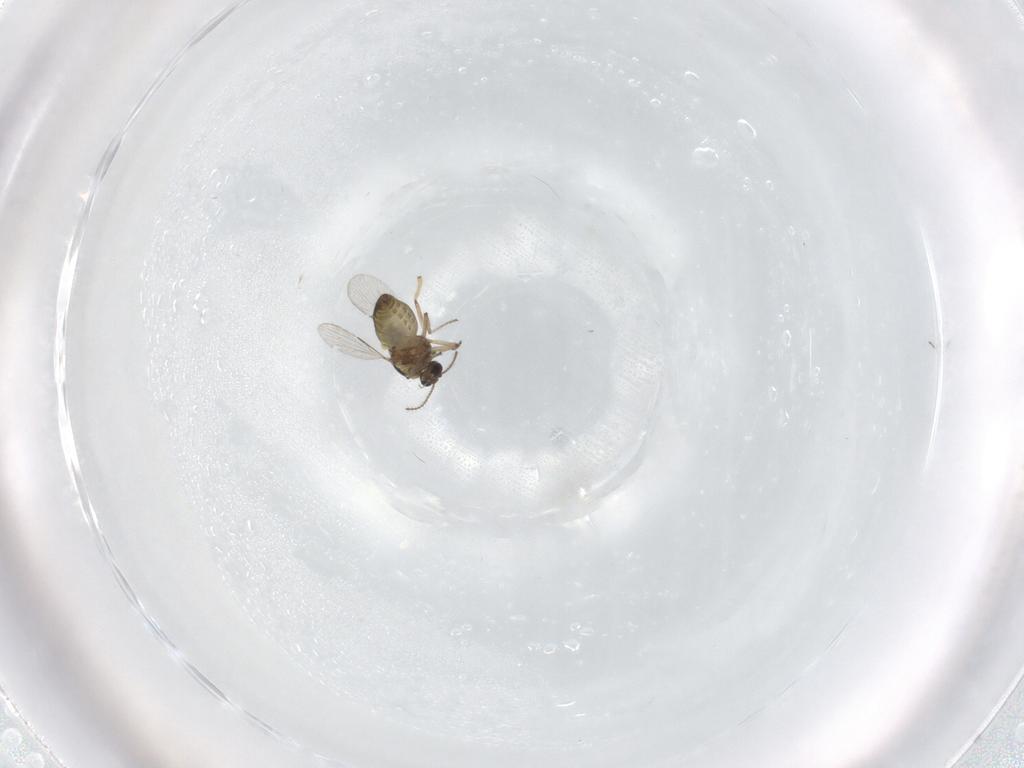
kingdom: Animalia
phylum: Arthropoda
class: Insecta
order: Diptera
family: Ceratopogonidae
